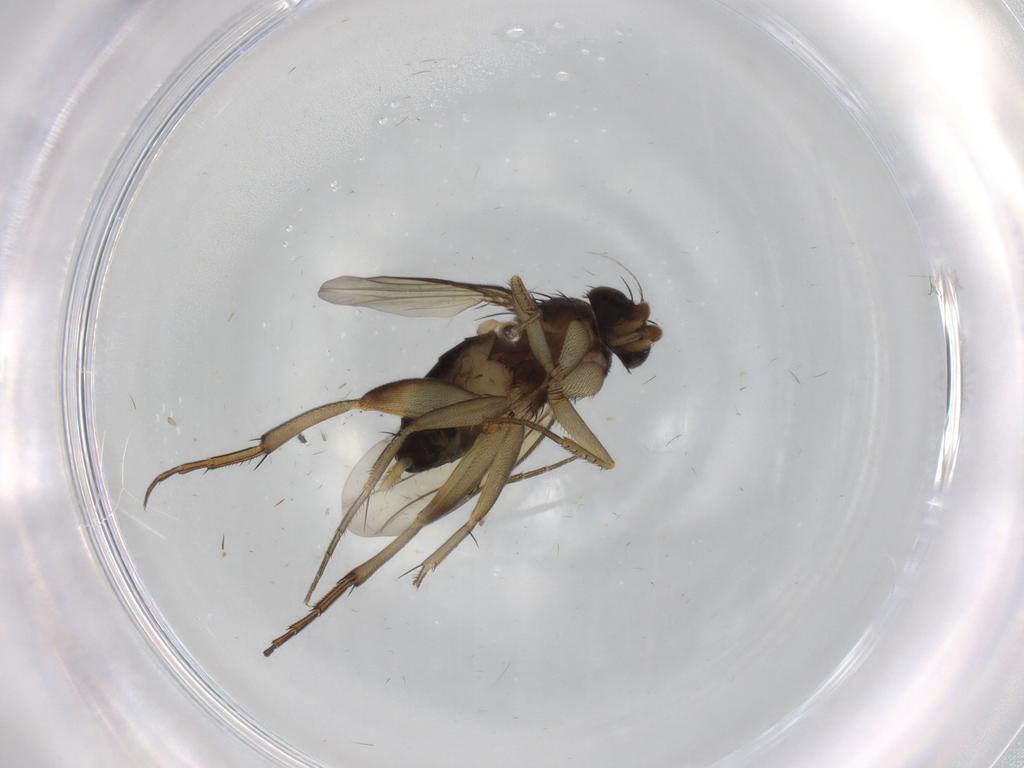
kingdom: Animalia
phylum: Arthropoda
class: Insecta
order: Diptera
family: Phoridae
